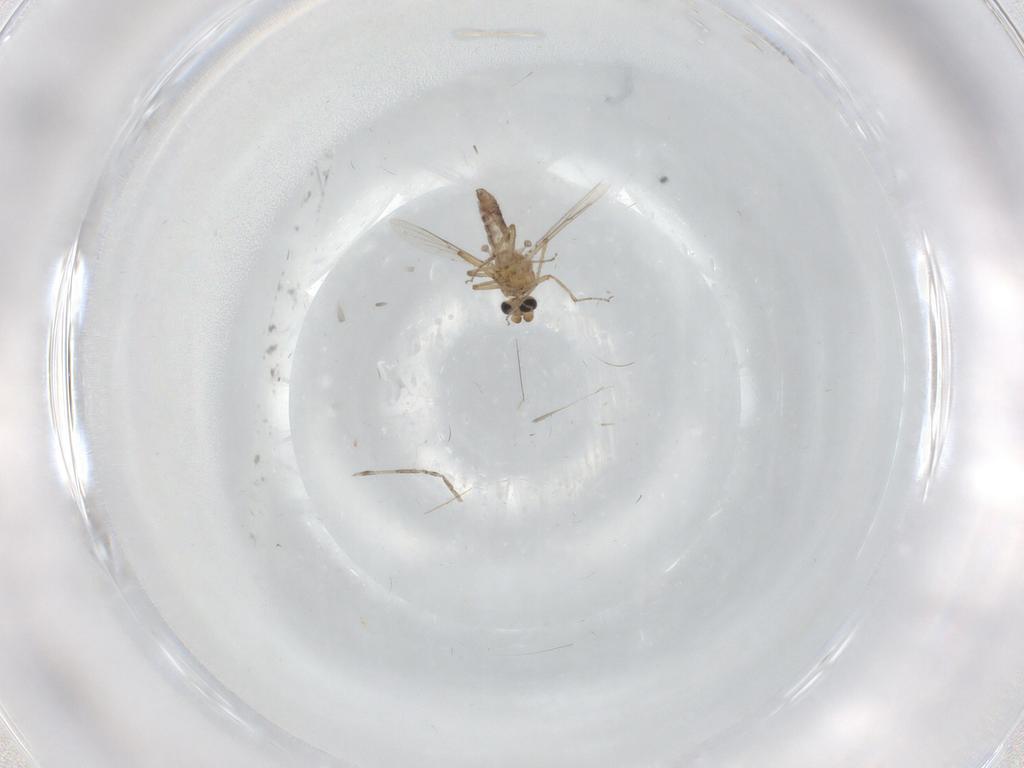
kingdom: Animalia
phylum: Arthropoda
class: Insecta
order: Diptera
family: Ceratopogonidae
